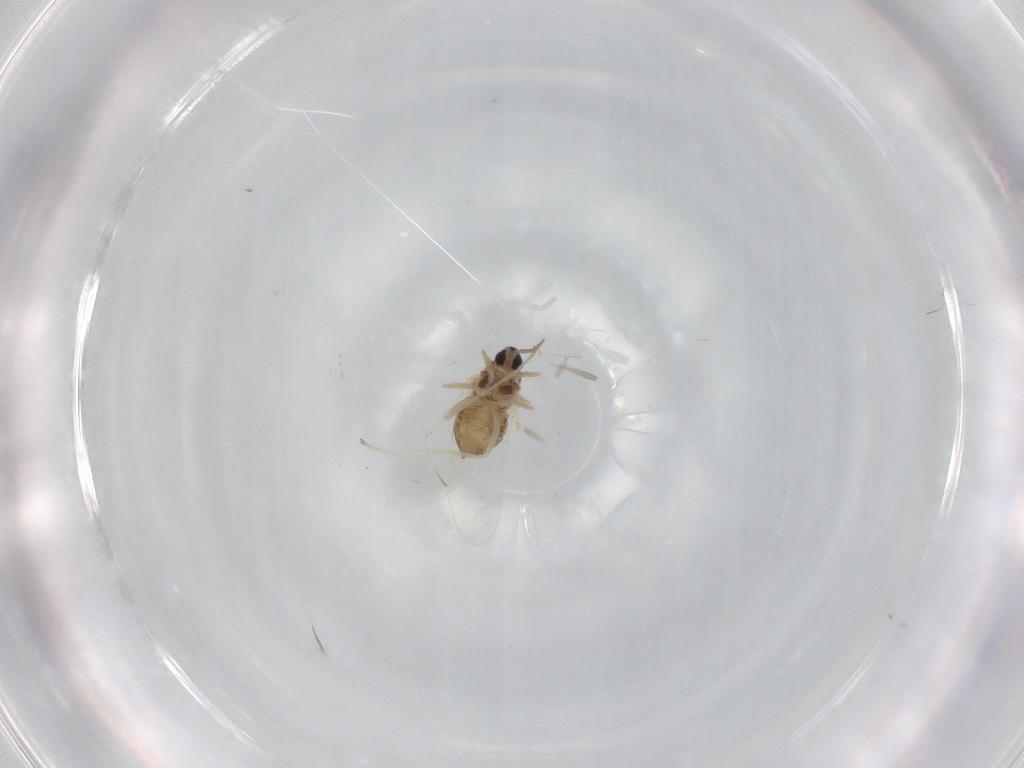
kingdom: Animalia
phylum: Arthropoda
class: Insecta
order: Diptera
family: Cecidomyiidae
